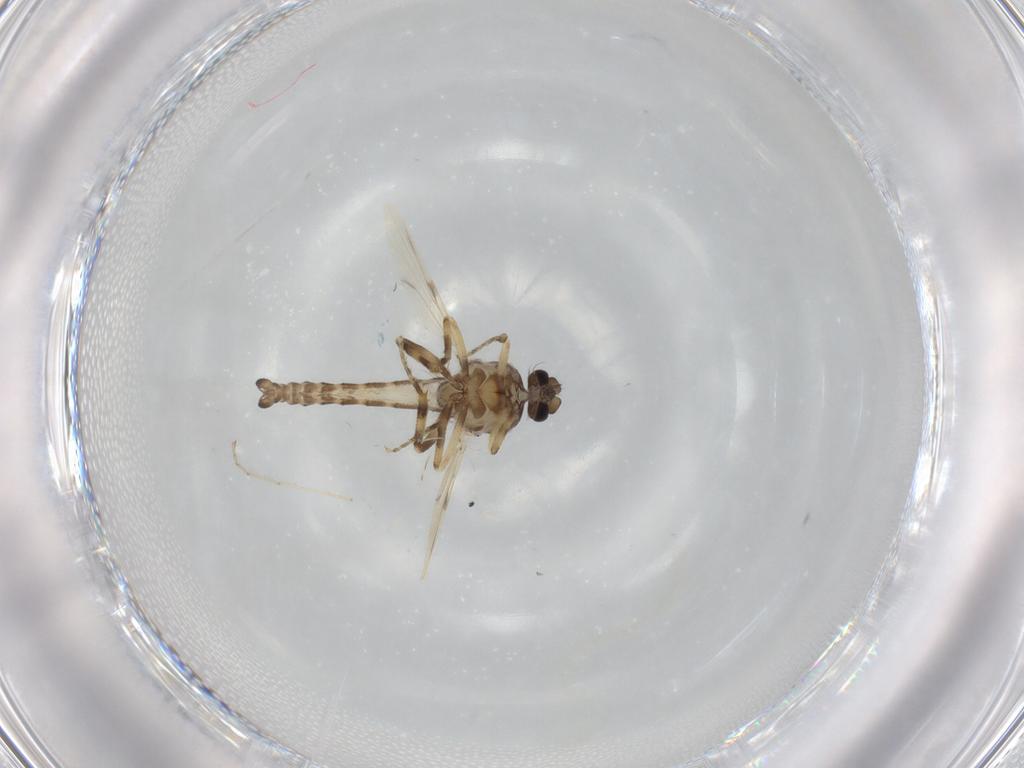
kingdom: Animalia
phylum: Arthropoda
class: Insecta
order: Diptera
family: Ceratopogonidae
